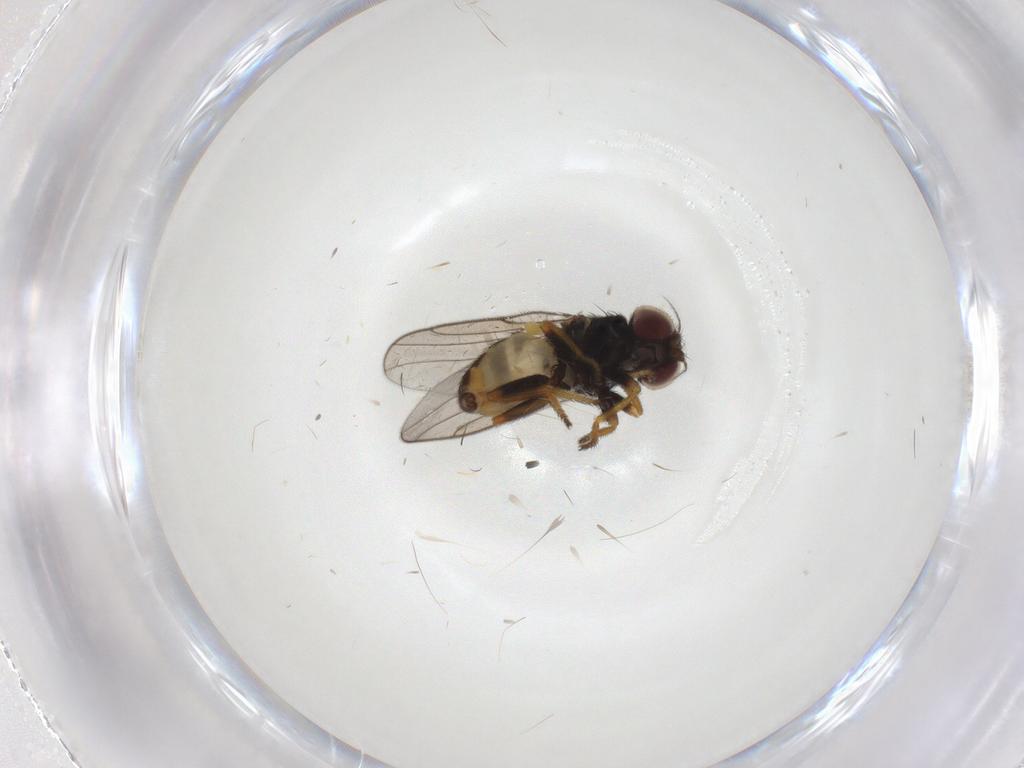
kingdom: Animalia
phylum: Arthropoda
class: Insecta
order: Diptera
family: Chloropidae
